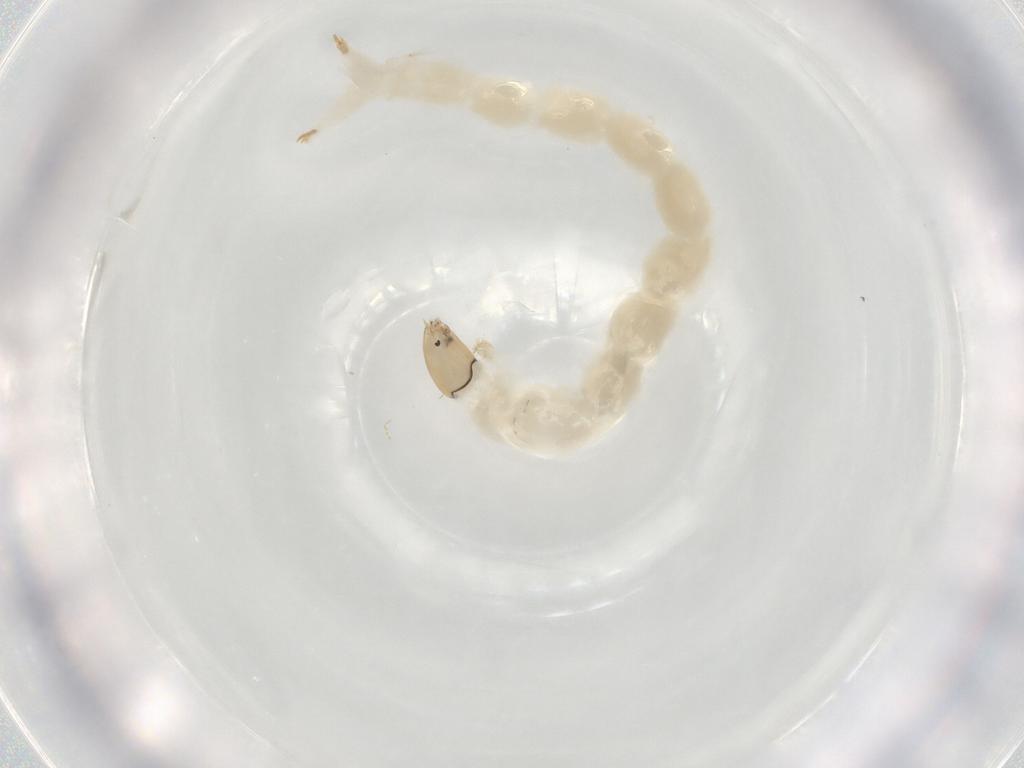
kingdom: Animalia
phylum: Arthropoda
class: Insecta
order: Diptera
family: Chironomidae
